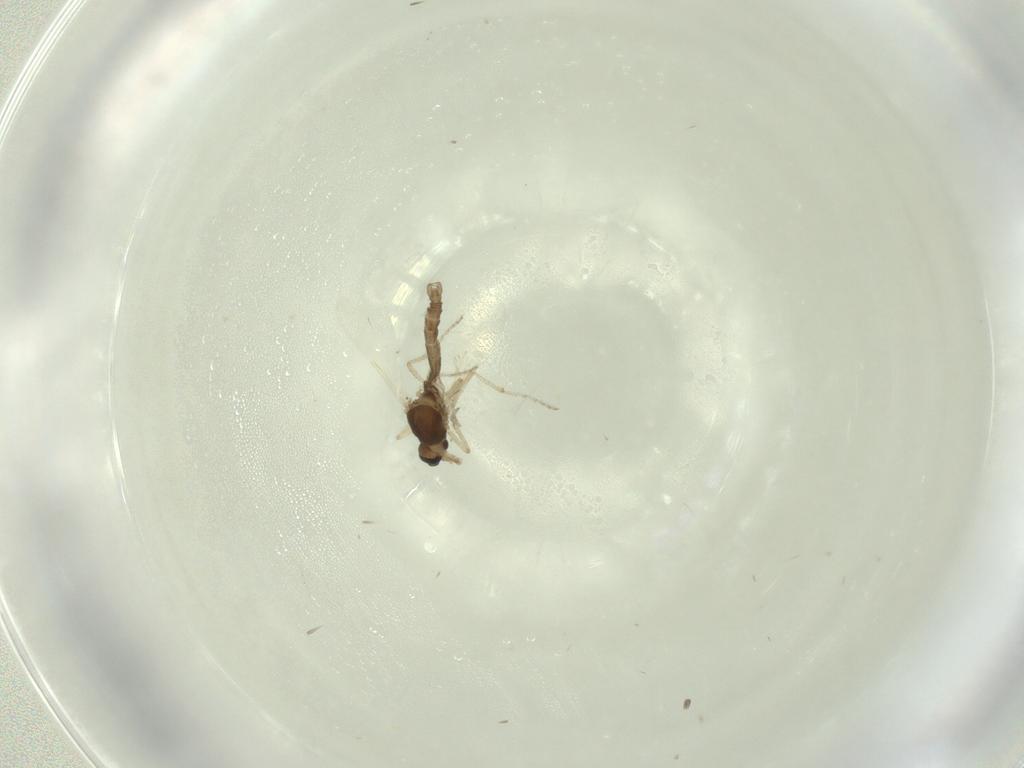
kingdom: Animalia
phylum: Arthropoda
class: Insecta
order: Diptera
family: Ceratopogonidae
